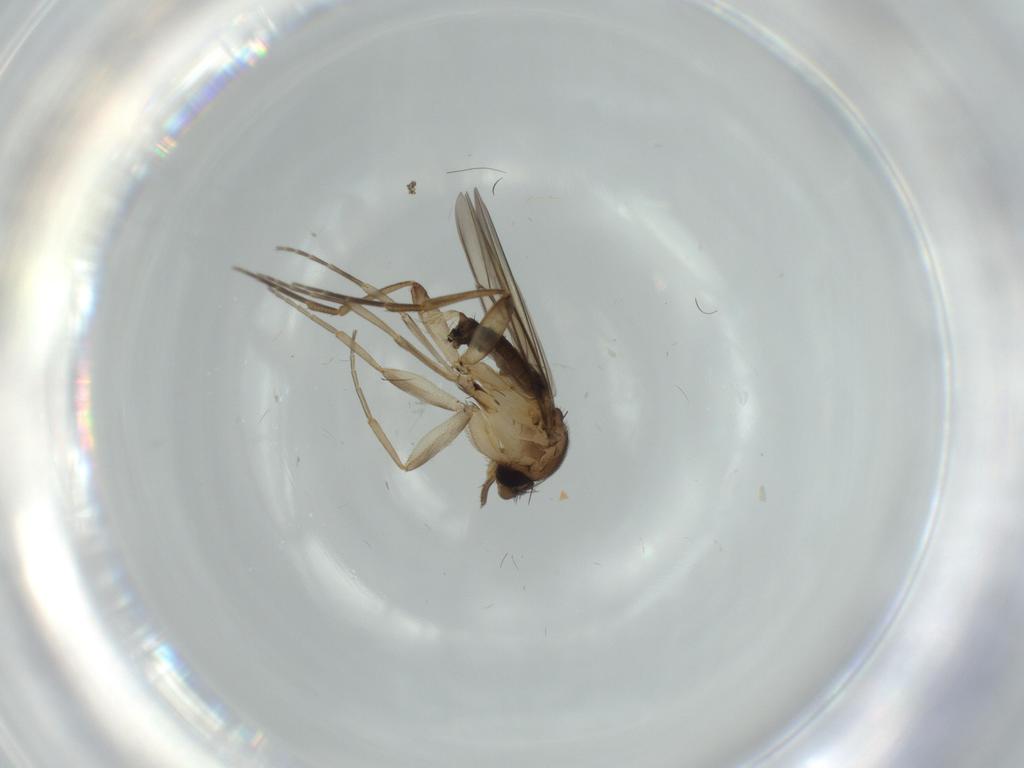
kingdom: Animalia
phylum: Arthropoda
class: Insecta
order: Diptera
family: Phoridae
